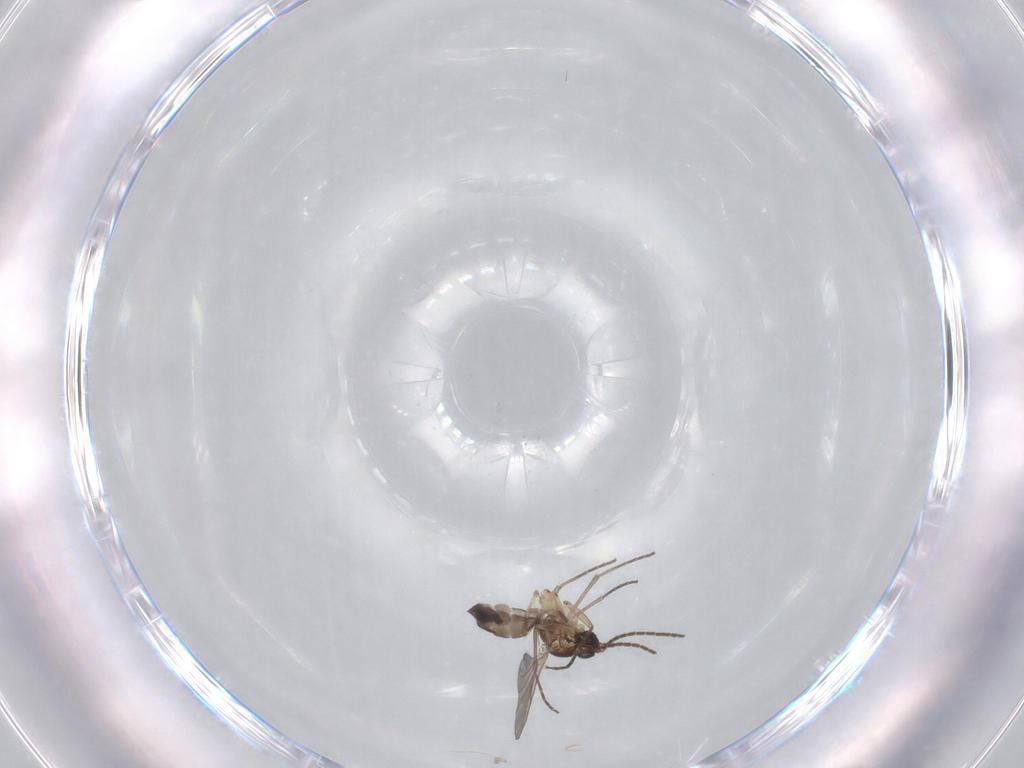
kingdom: Animalia
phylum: Arthropoda
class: Insecta
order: Diptera
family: Sciaridae
